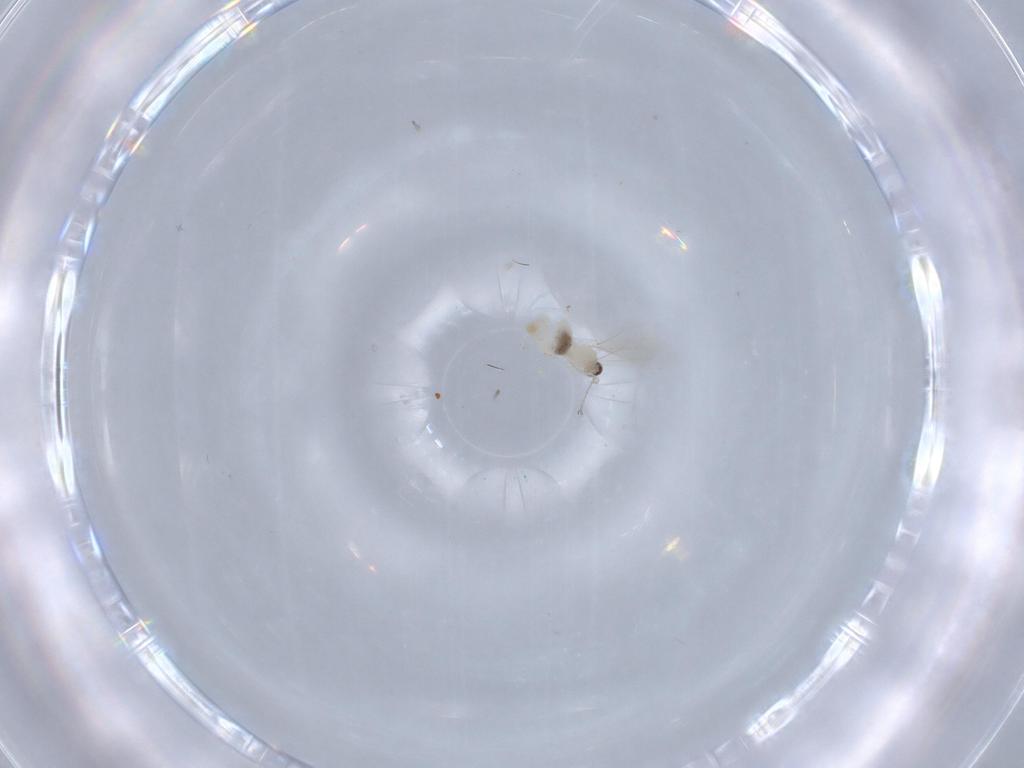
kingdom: Animalia
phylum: Arthropoda
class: Insecta
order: Diptera
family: Cecidomyiidae
